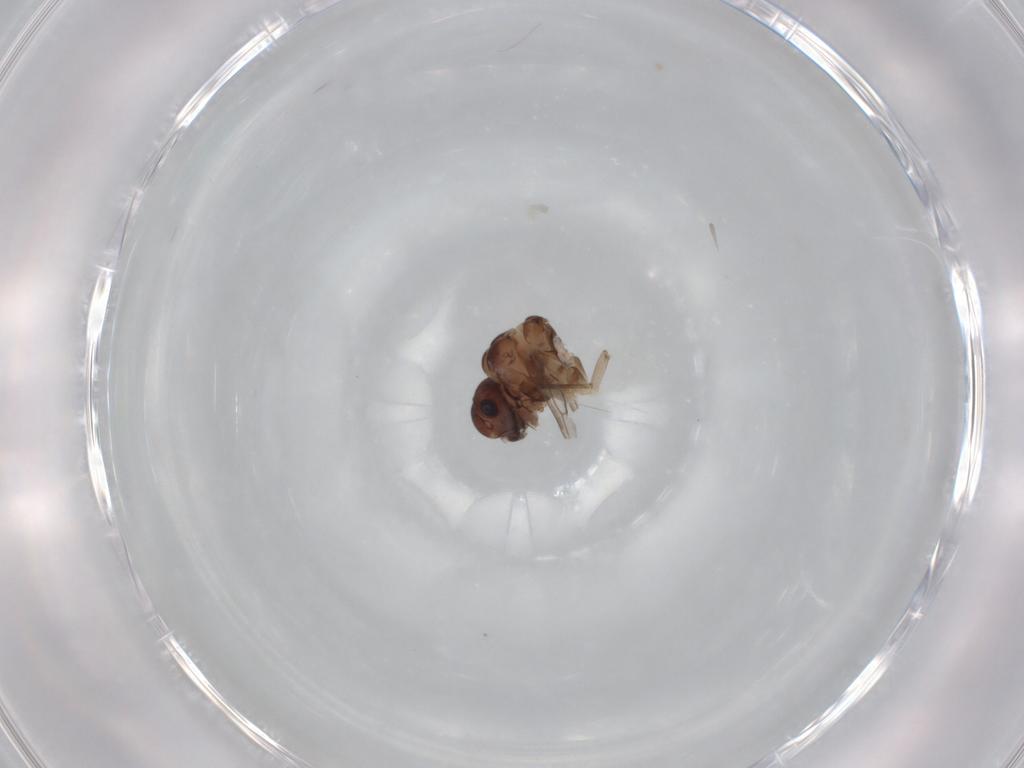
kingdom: Animalia
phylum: Arthropoda
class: Insecta
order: Psocodea
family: Peripsocidae
